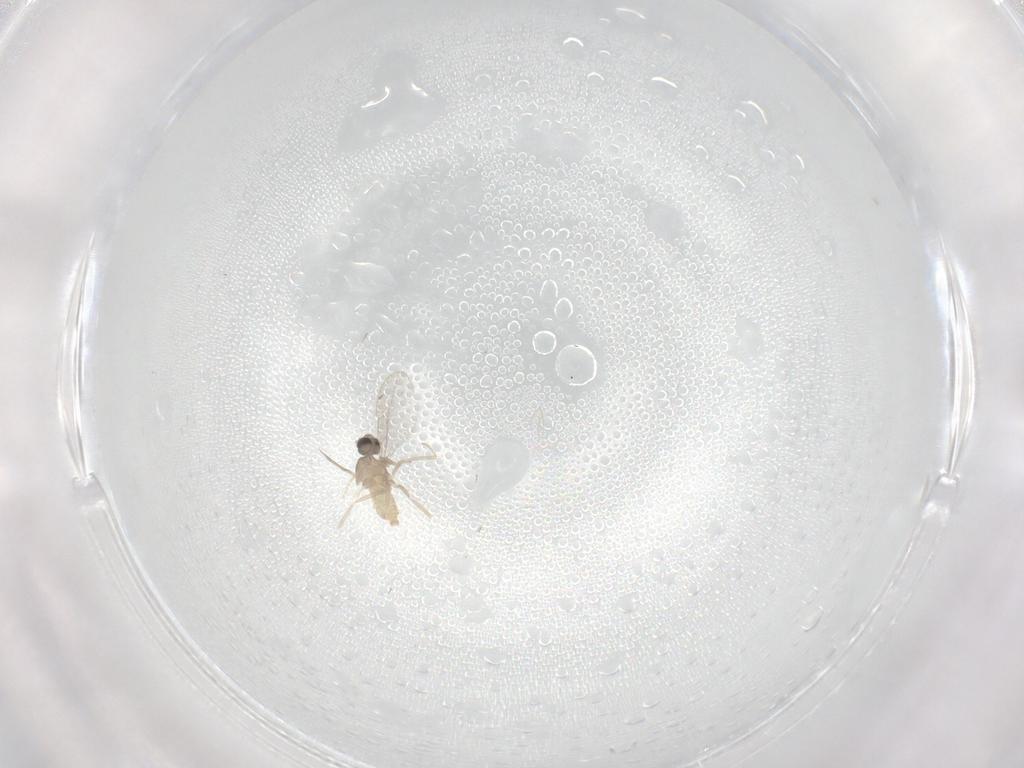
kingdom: Animalia
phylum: Arthropoda
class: Insecta
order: Diptera
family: Cecidomyiidae
